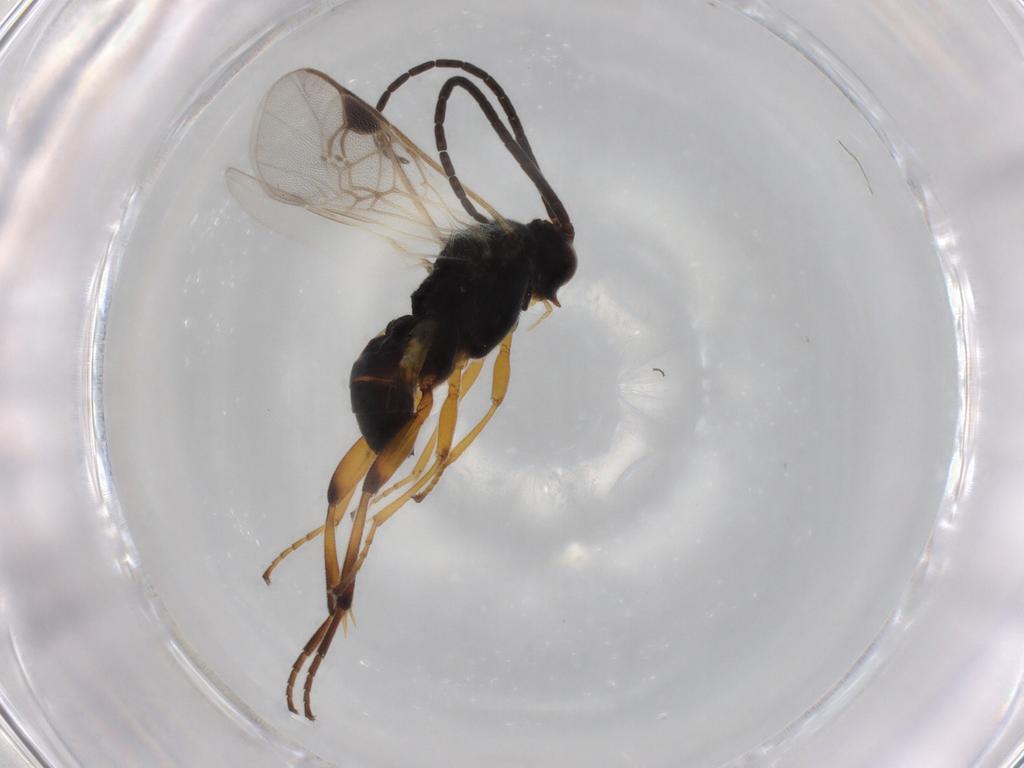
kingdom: Animalia
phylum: Arthropoda
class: Insecta
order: Hymenoptera
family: Braconidae
